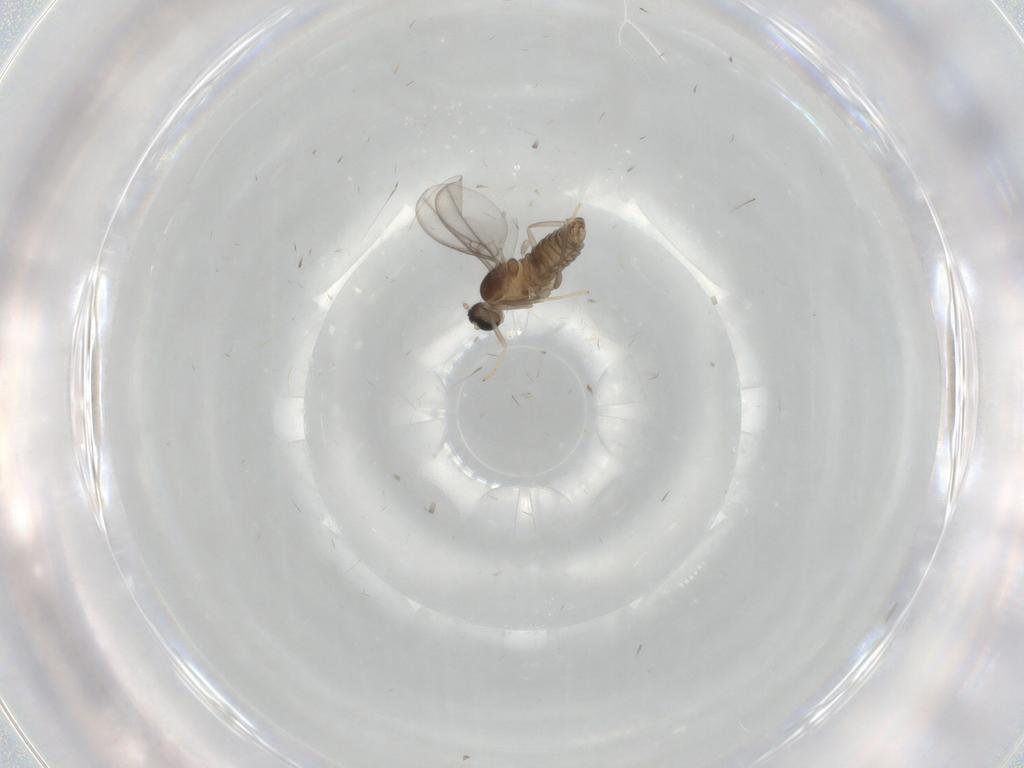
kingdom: Animalia
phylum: Arthropoda
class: Insecta
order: Diptera
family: Cecidomyiidae
